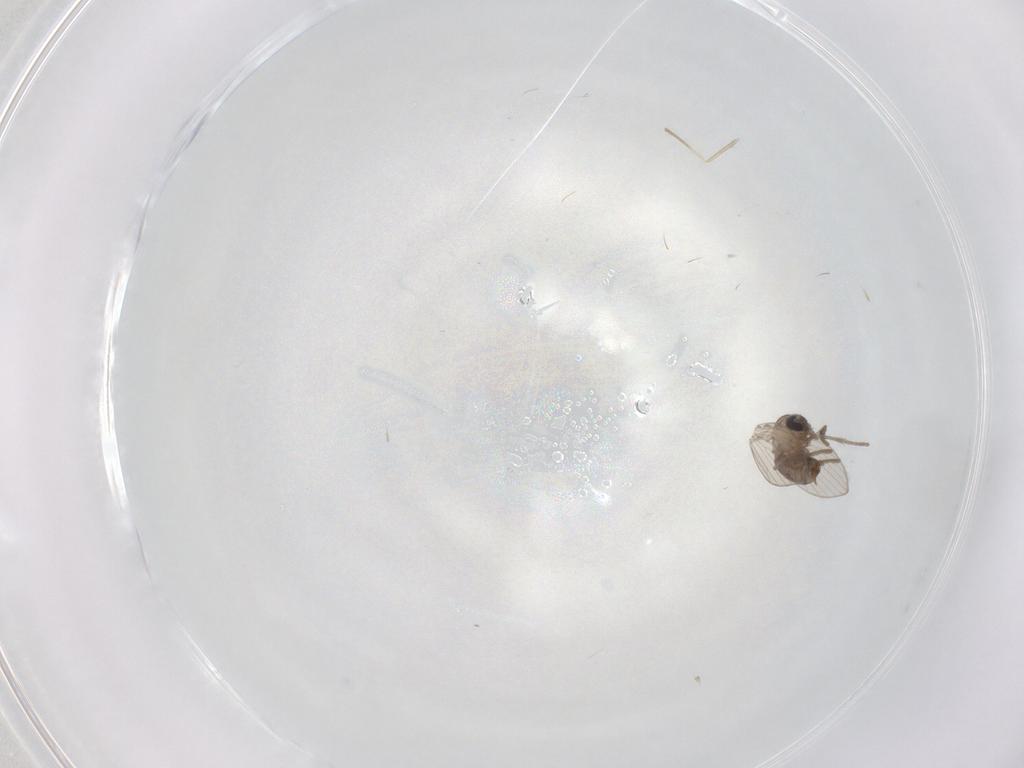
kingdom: Animalia
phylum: Arthropoda
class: Insecta
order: Diptera
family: Psychodidae
